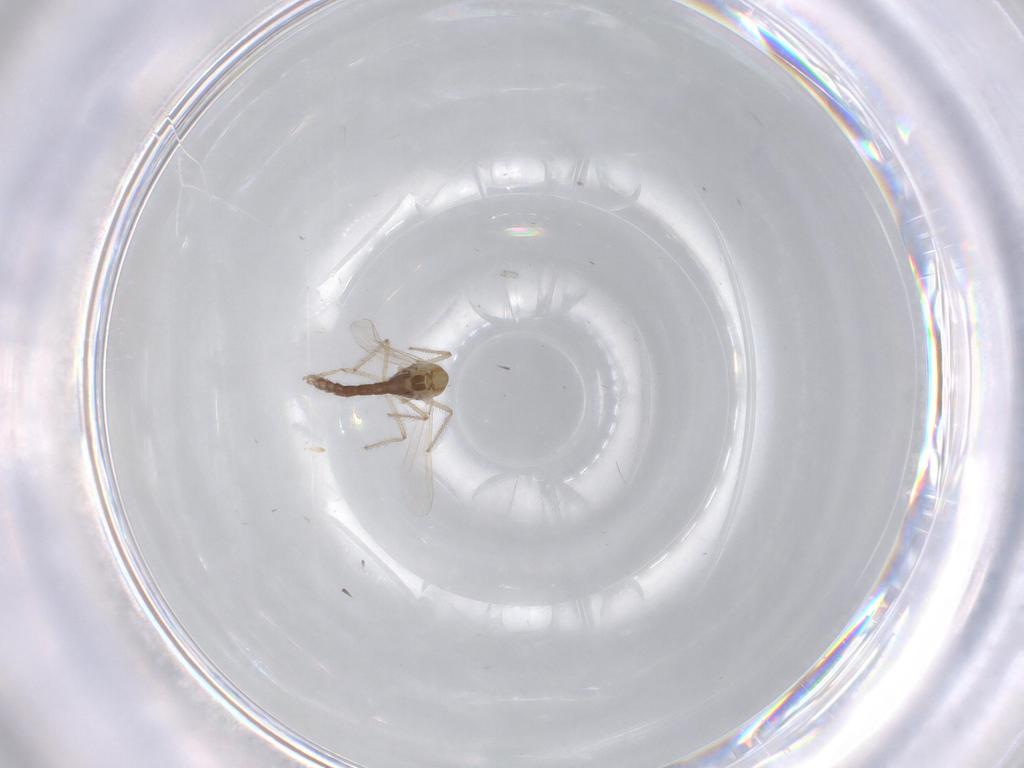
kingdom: Animalia
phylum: Arthropoda
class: Insecta
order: Diptera
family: Chironomidae
